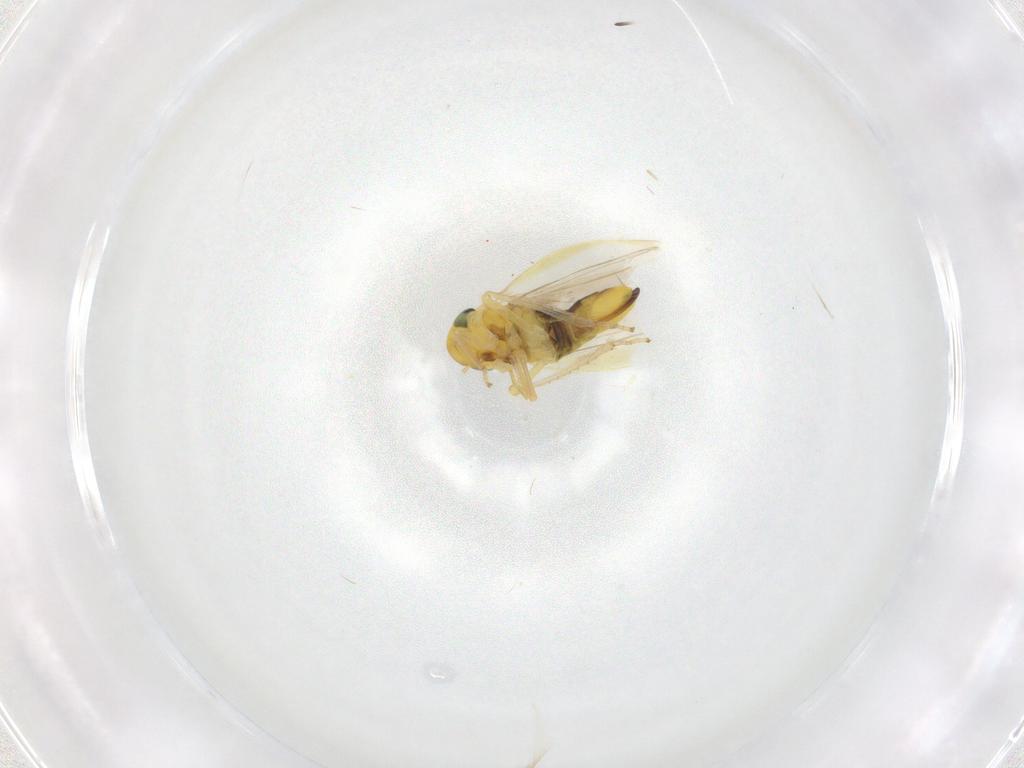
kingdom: Animalia
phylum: Arthropoda
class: Insecta
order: Hemiptera
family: Cicadellidae
